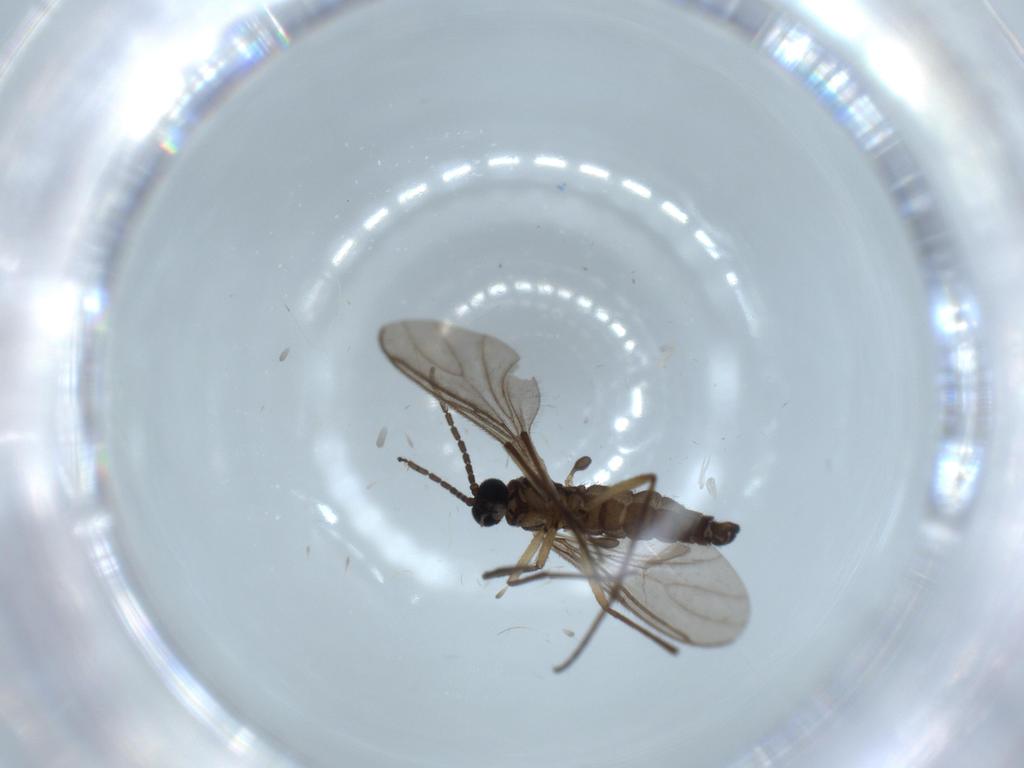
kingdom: Animalia
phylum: Arthropoda
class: Insecta
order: Diptera
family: Sciaridae
